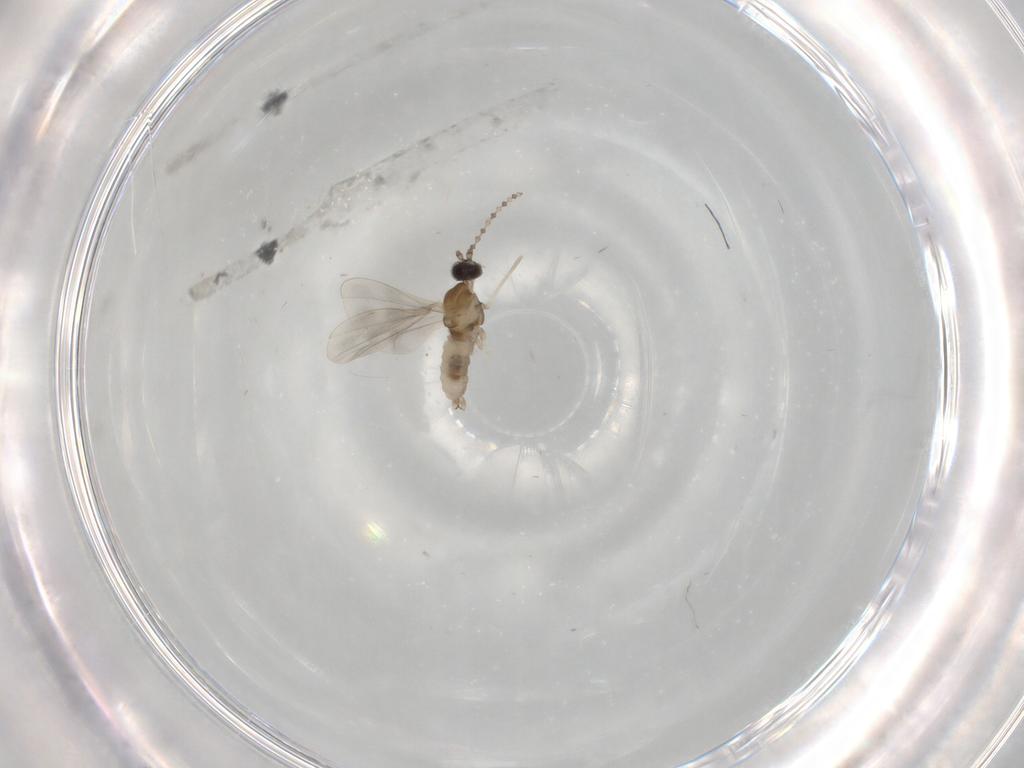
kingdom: Animalia
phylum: Arthropoda
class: Insecta
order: Diptera
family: Cecidomyiidae
